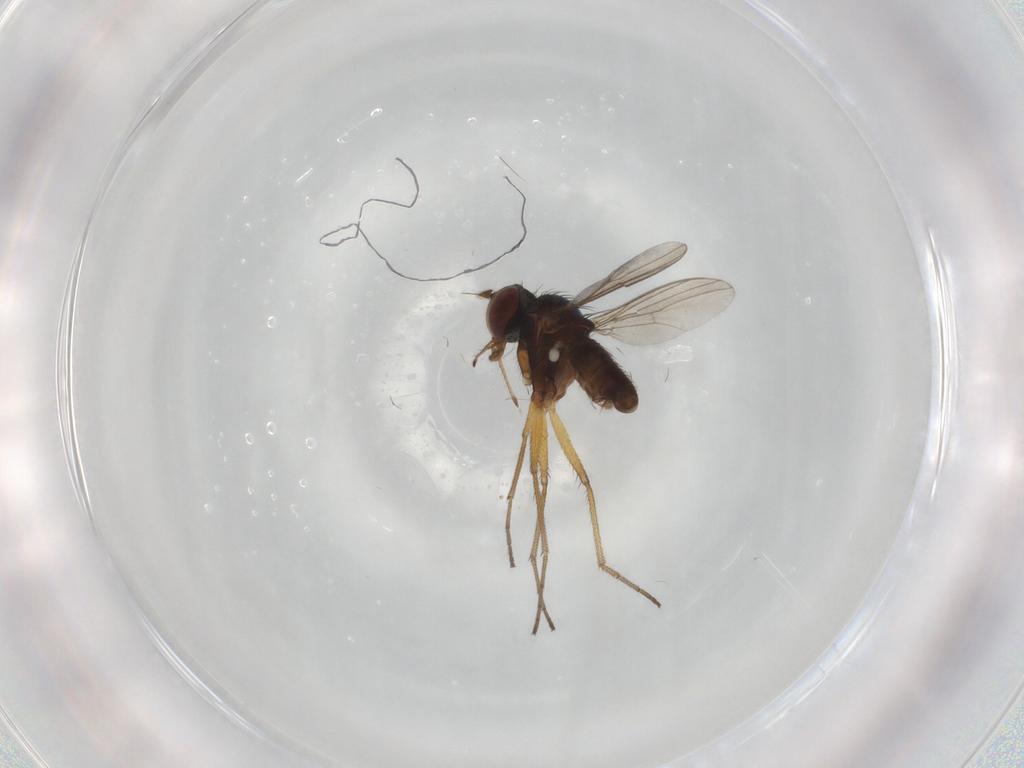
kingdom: Animalia
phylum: Arthropoda
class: Insecta
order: Diptera
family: Dolichopodidae
